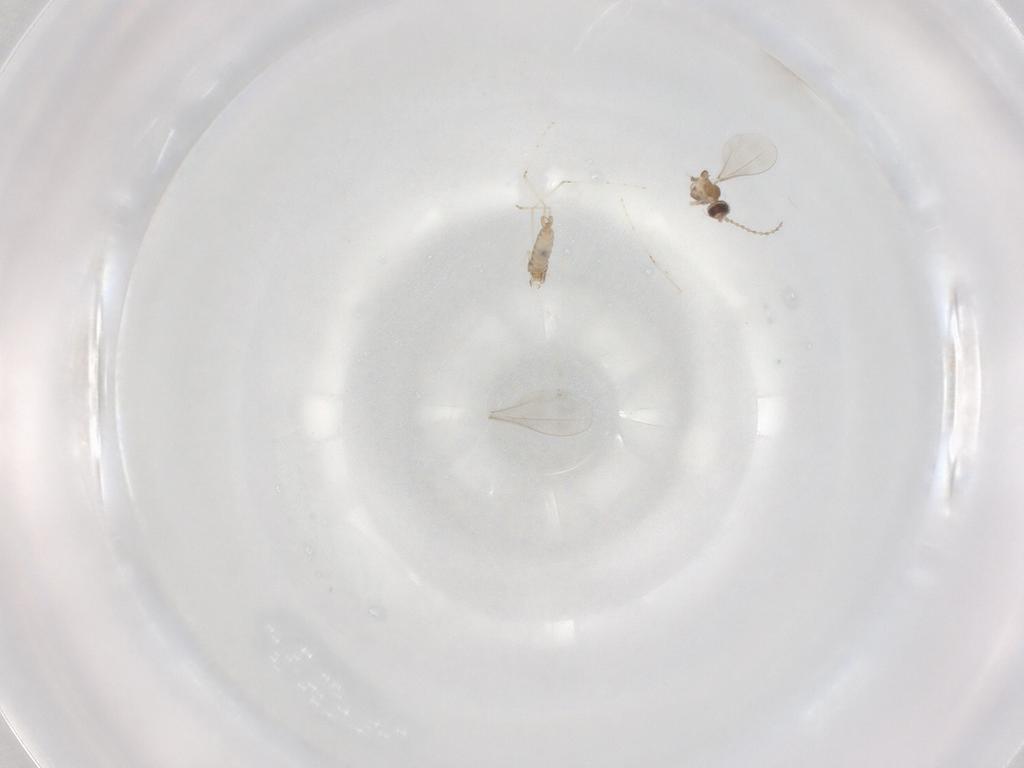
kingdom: Animalia
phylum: Arthropoda
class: Insecta
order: Diptera
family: Cecidomyiidae
